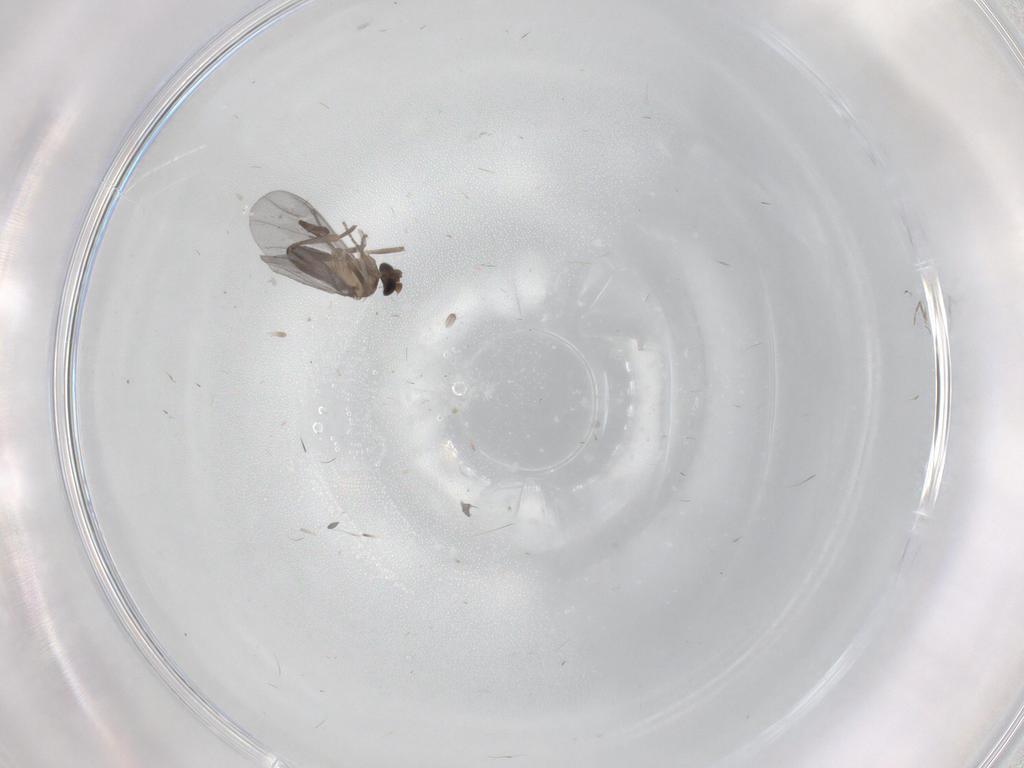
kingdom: Animalia
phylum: Arthropoda
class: Insecta
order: Diptera
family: Phoridae
